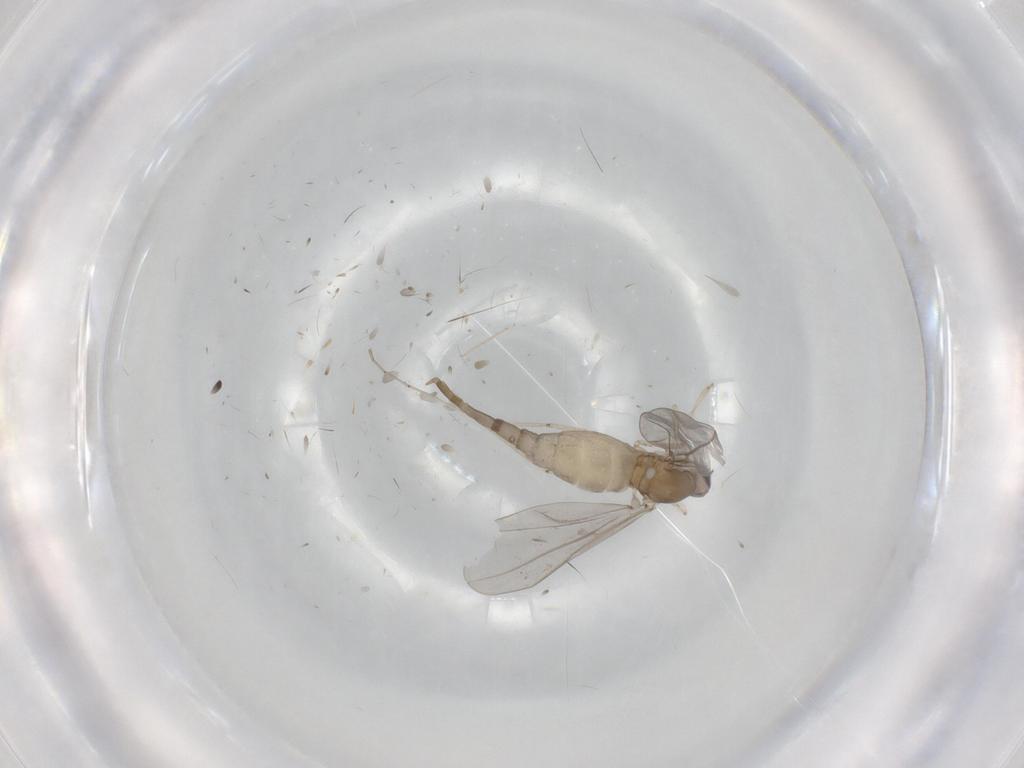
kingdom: Animalia
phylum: Arthropoda
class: Insecta
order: Diptera
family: Cecidomyiidae
